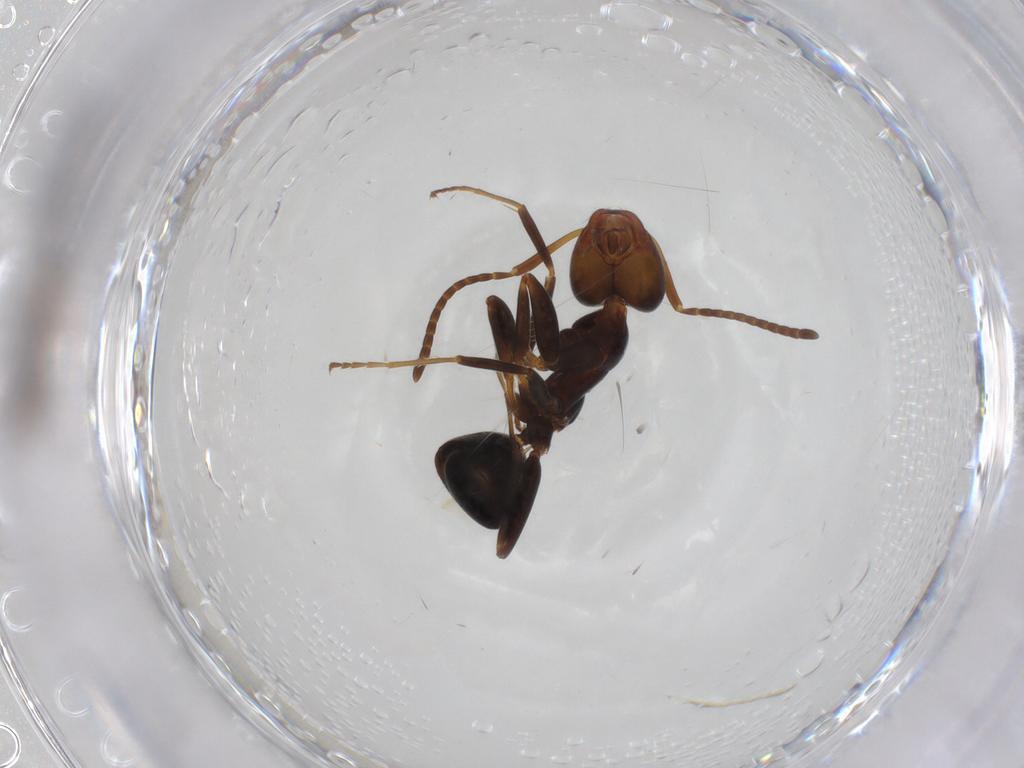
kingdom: Animalia
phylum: Arthropoda
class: Insecta
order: Hymenoptera
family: Formicidae
